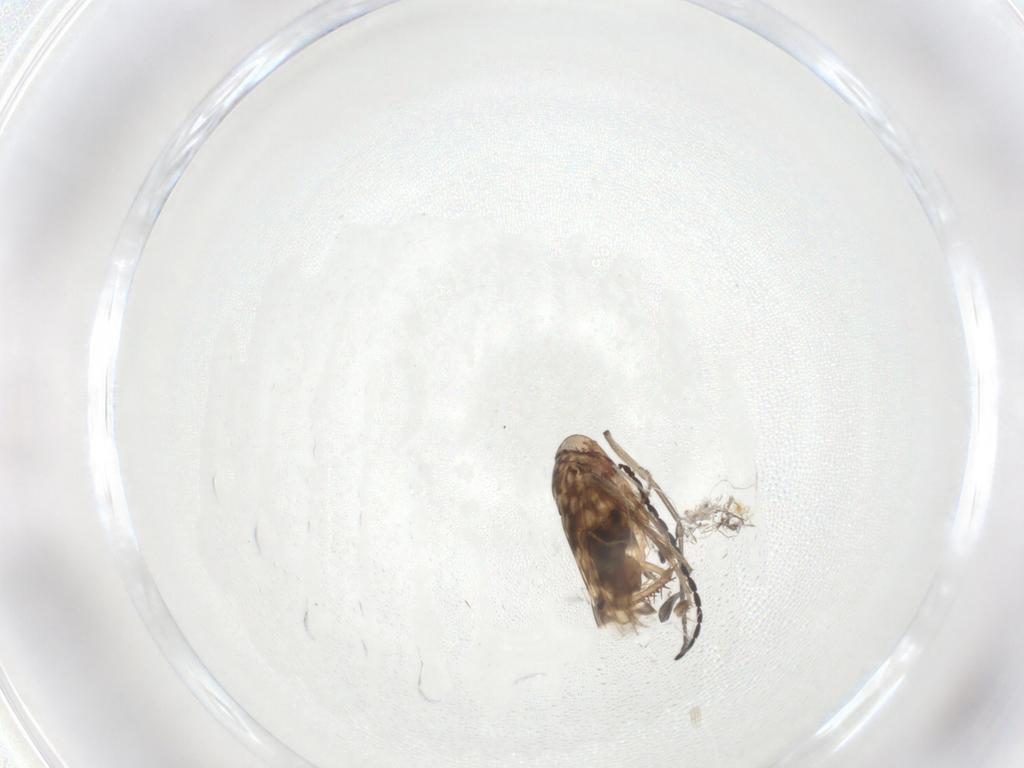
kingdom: Animalia
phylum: Arthropoda
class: Insecta
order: Hemiptera
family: Cicadellidae
